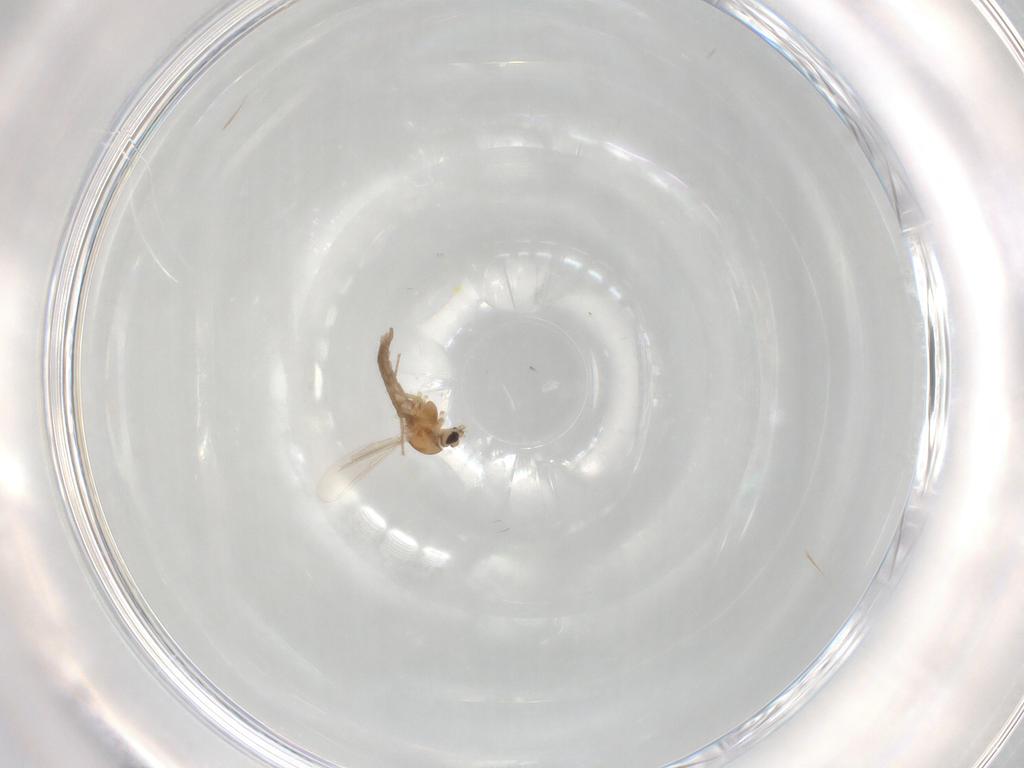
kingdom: Animalia
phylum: Arthropoda
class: Insecta
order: Diptera
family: Chironomidae
